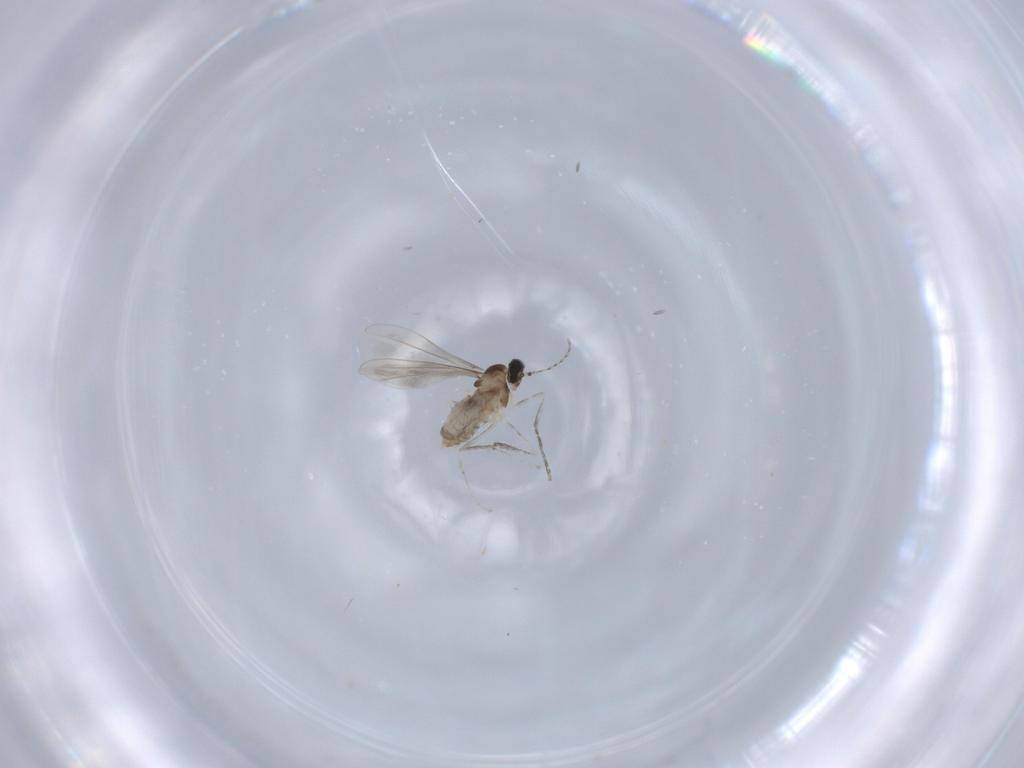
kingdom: Animalia
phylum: Arthropoda
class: Insecta
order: Diptera
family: Cecidomyiidae
